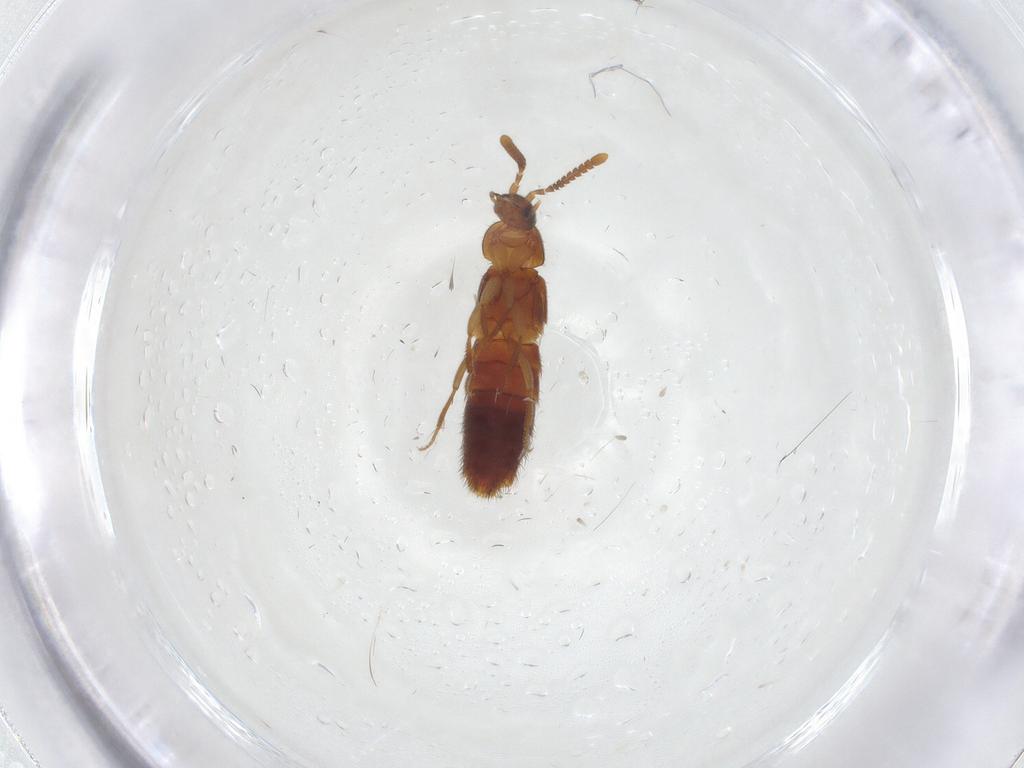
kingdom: Animalia
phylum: Arthropoda
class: Insecta
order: Coleoptera
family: Staphylinidae
